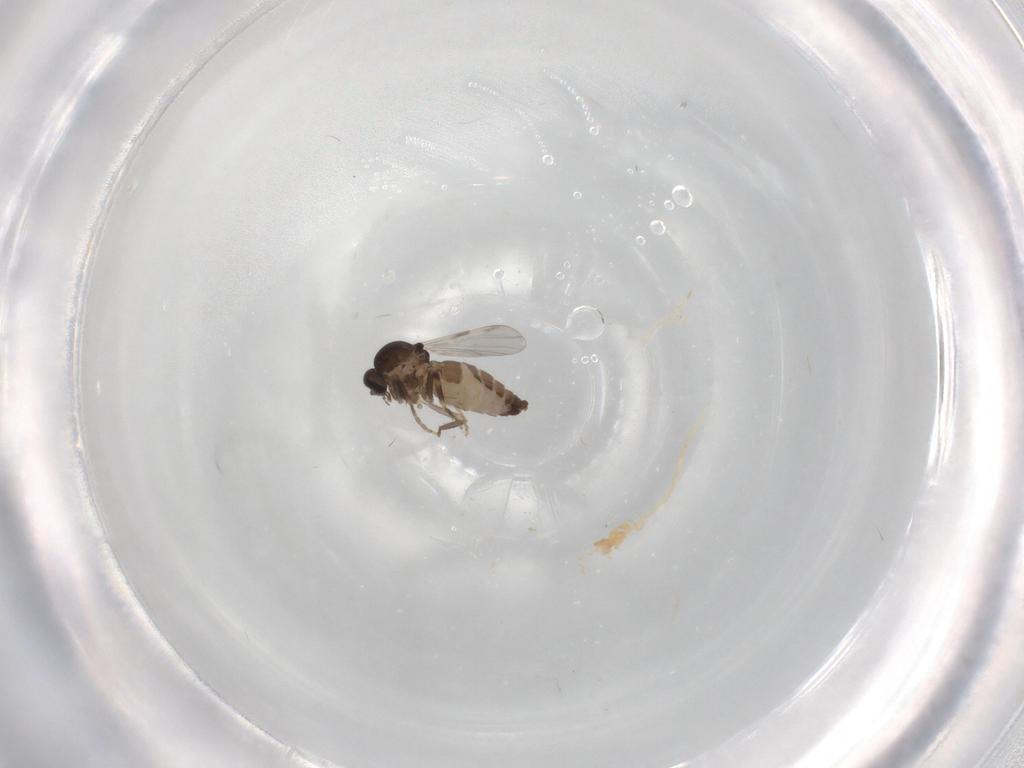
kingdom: Animalia
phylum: Arthropoda
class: Insecta
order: Diptera
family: Ceratopogonidae
